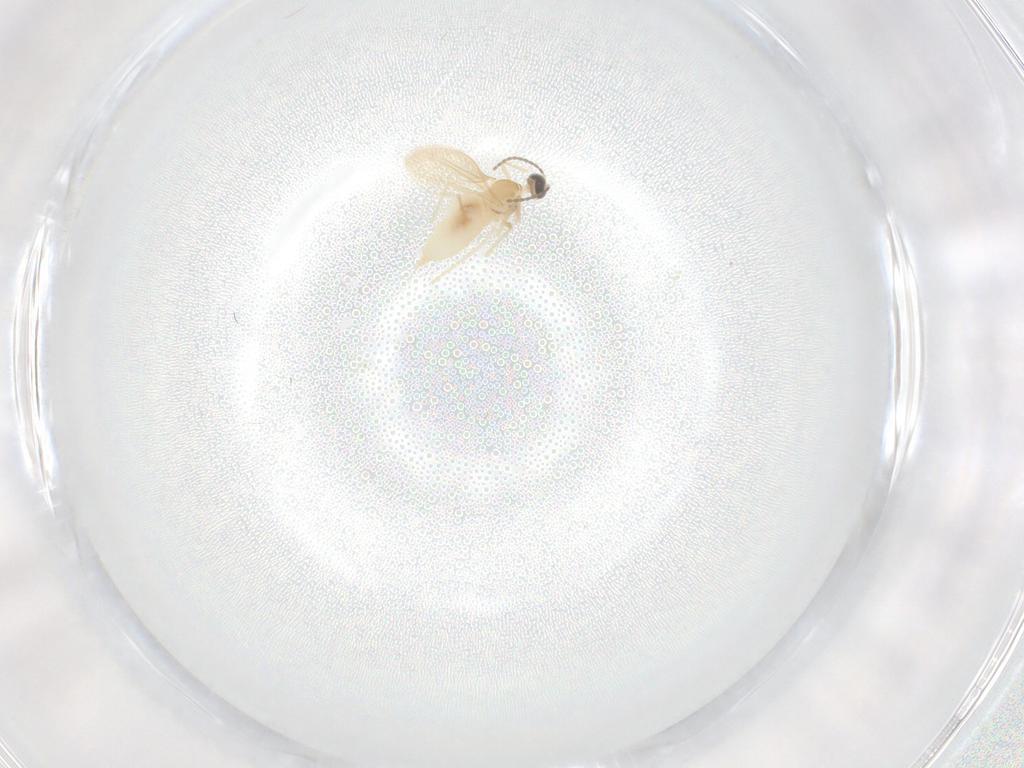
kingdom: Animalia
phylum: Arthropoda
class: Insecta
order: Diptera
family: Cecidomyiidae
